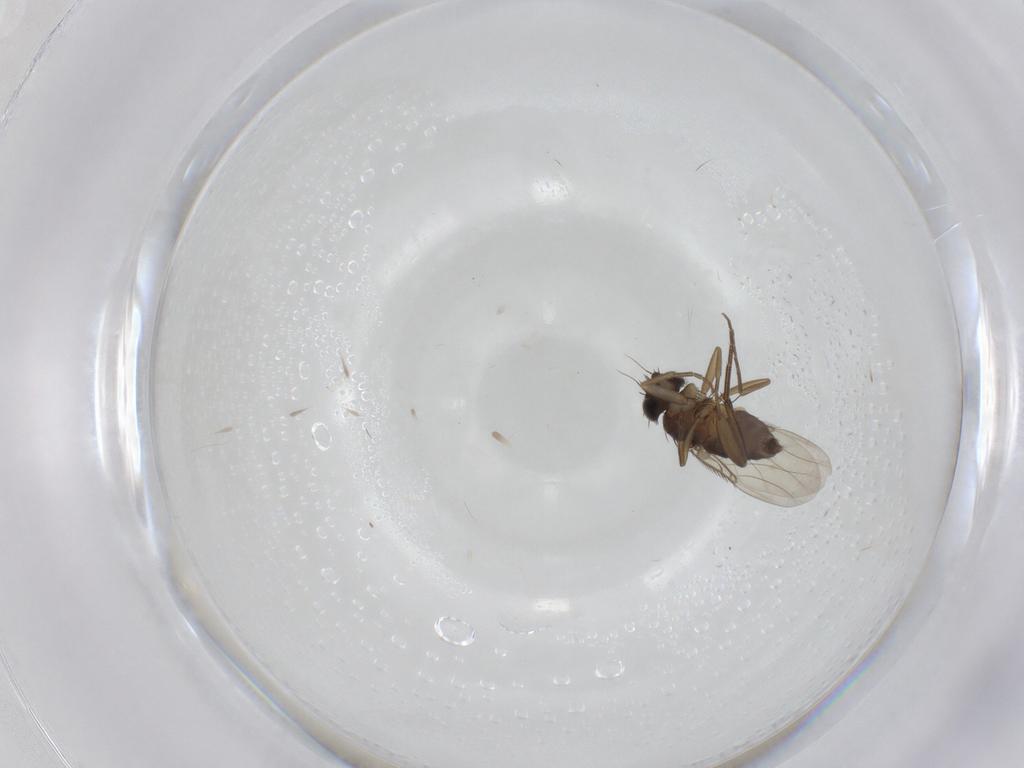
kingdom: Animalia
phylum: Arthropoda
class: Insecta
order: Diptera
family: Phoridae
